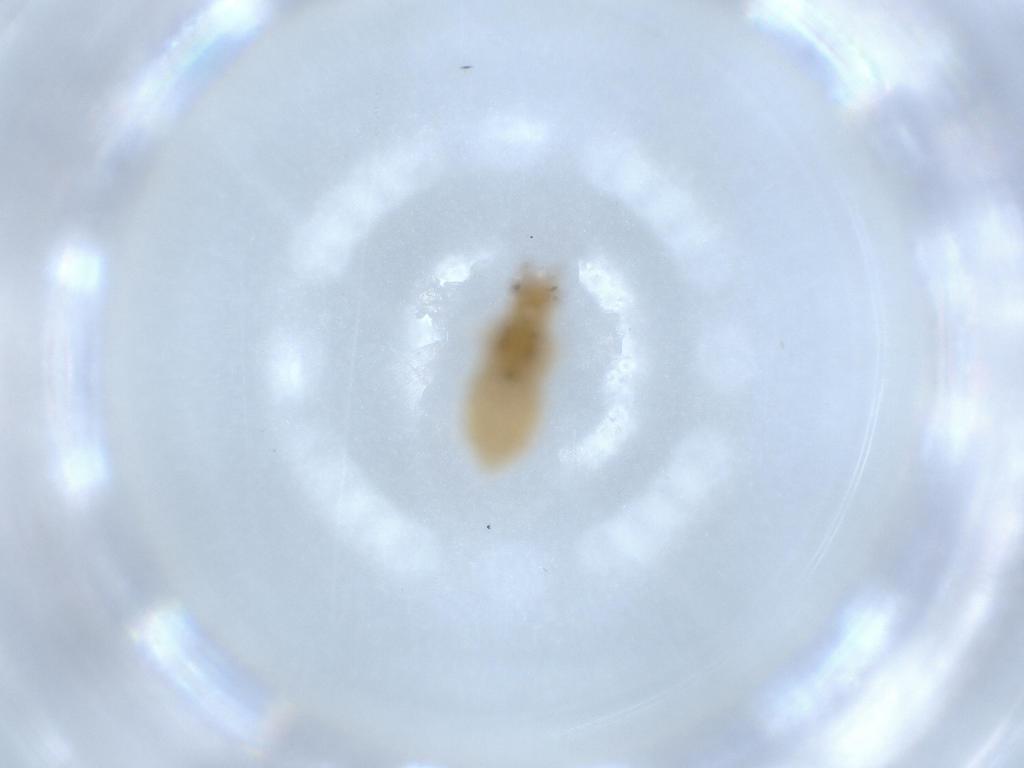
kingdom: Animalia
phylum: Arthropoda
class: Insecta
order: Hemiptera
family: Aphididae
